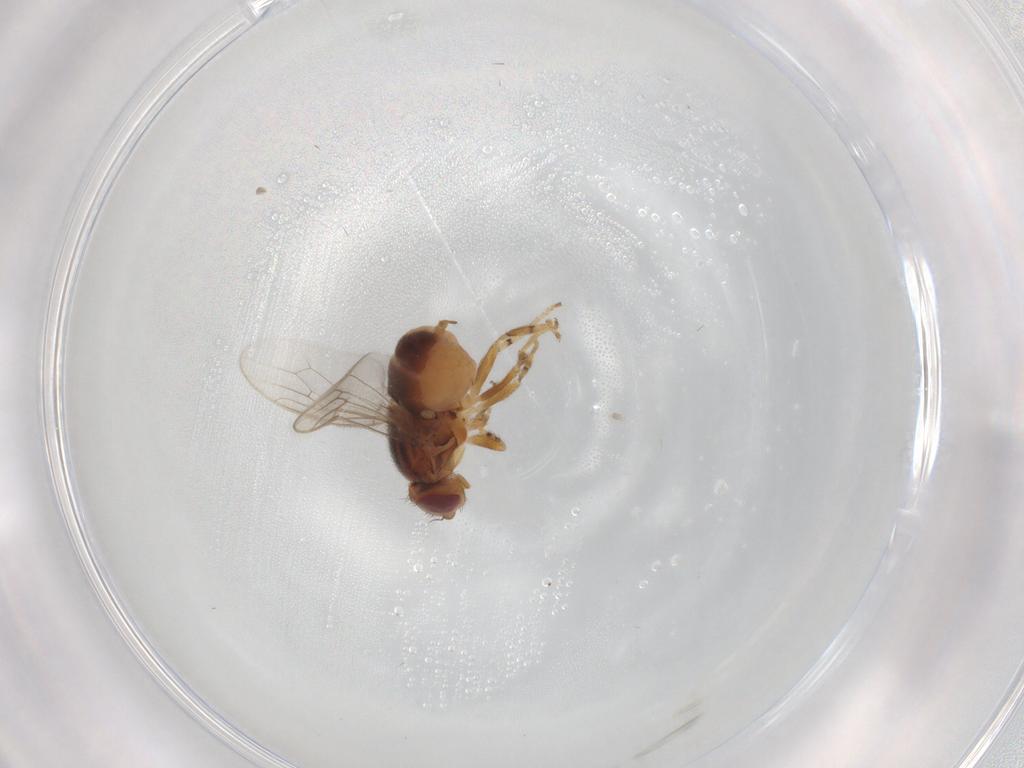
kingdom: Animalia
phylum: Arthropoda
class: Insecta
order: Diptera
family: Chloropidae
